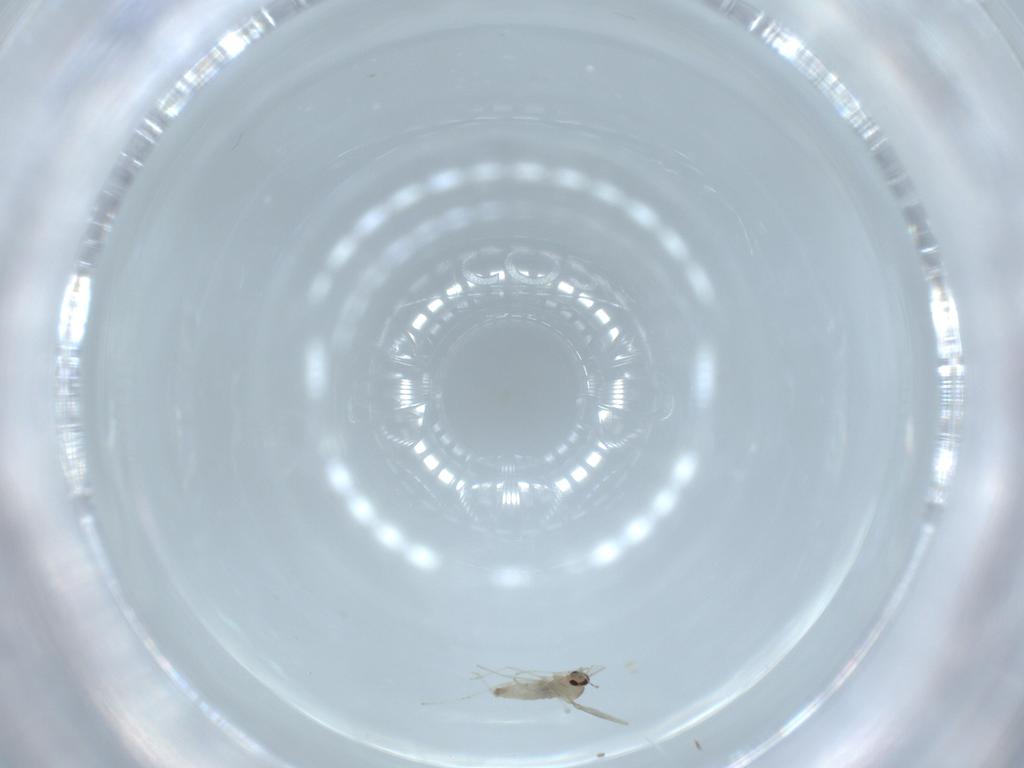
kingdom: Animalia
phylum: Arthropoda
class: Insecta
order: Diptera
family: Cecidomyiidae
